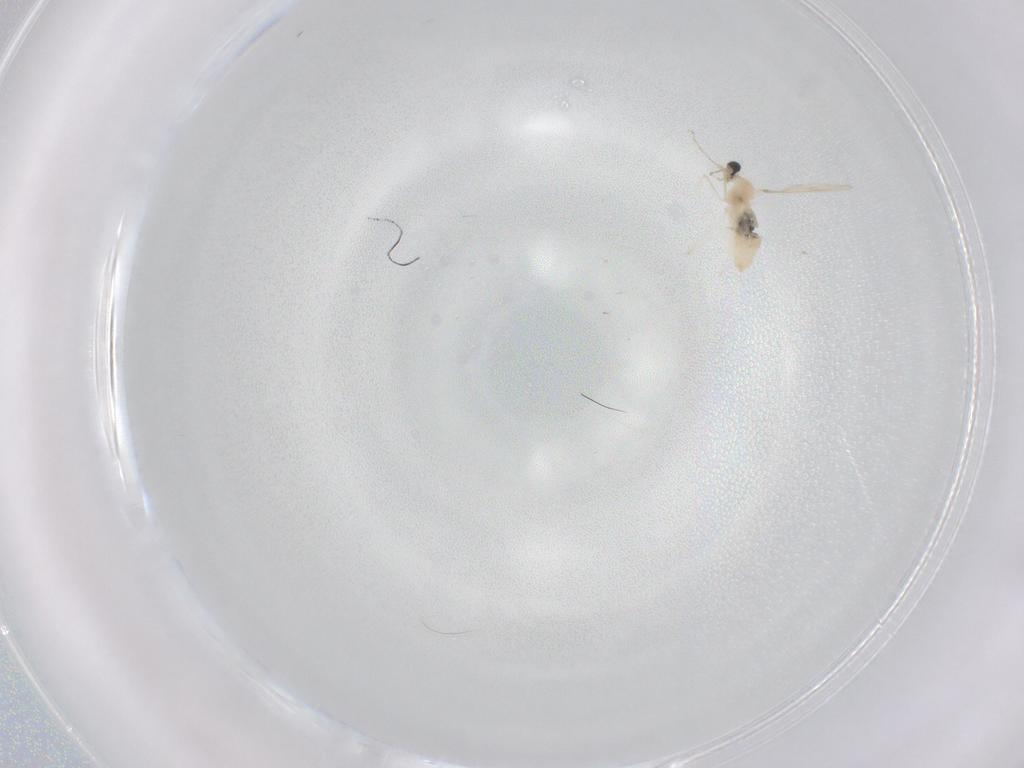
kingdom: Animalia
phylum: Arthropoda
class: Insecta
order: Diptera
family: Cecidomyiidae
